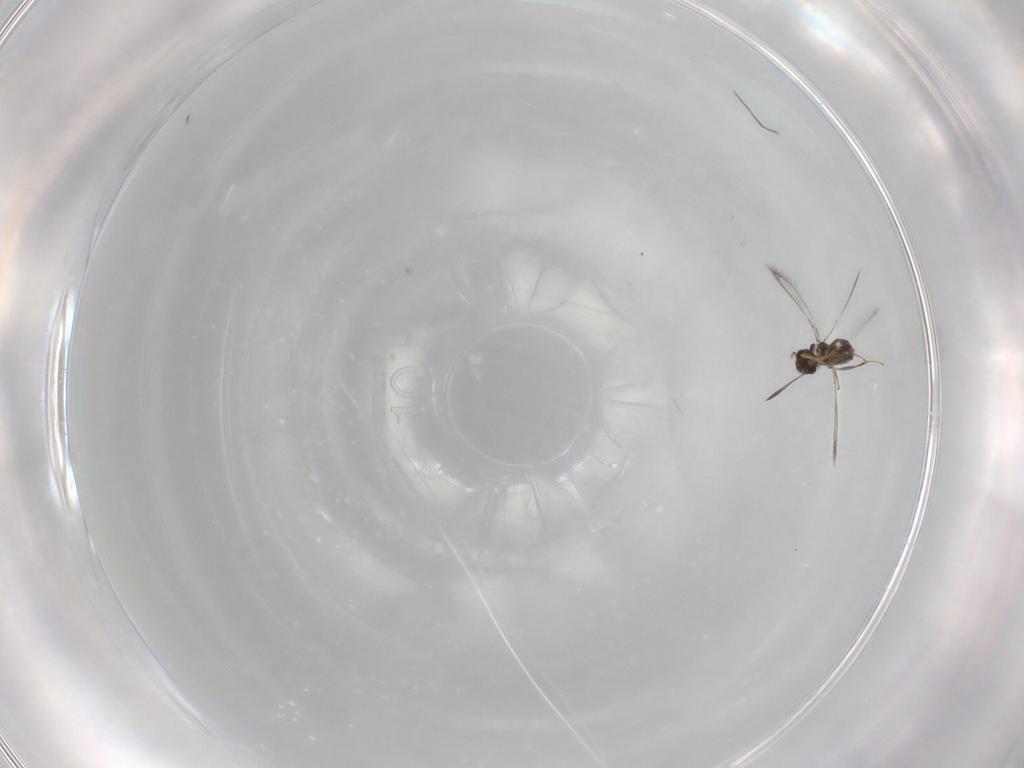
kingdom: Animalia
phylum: Arthropoda
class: Insecta
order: Hymenoptera
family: Mymaridae
